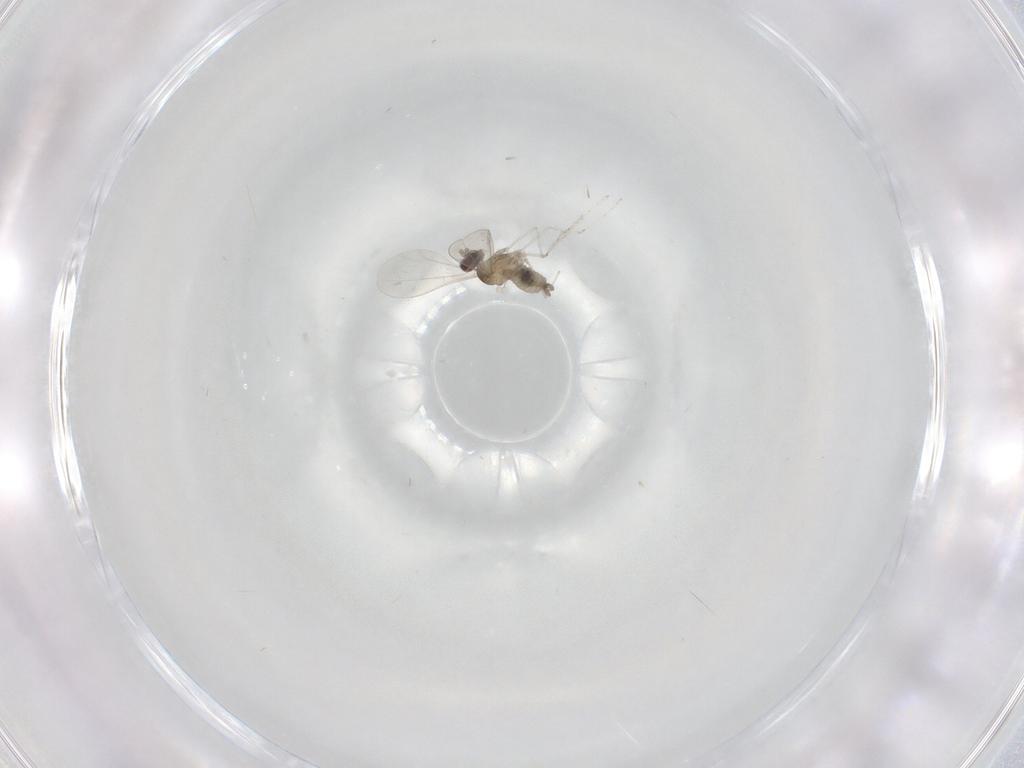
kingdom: Animalia
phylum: Arthropoda
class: Insecta
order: Diptera
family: Cecidomyiidae
